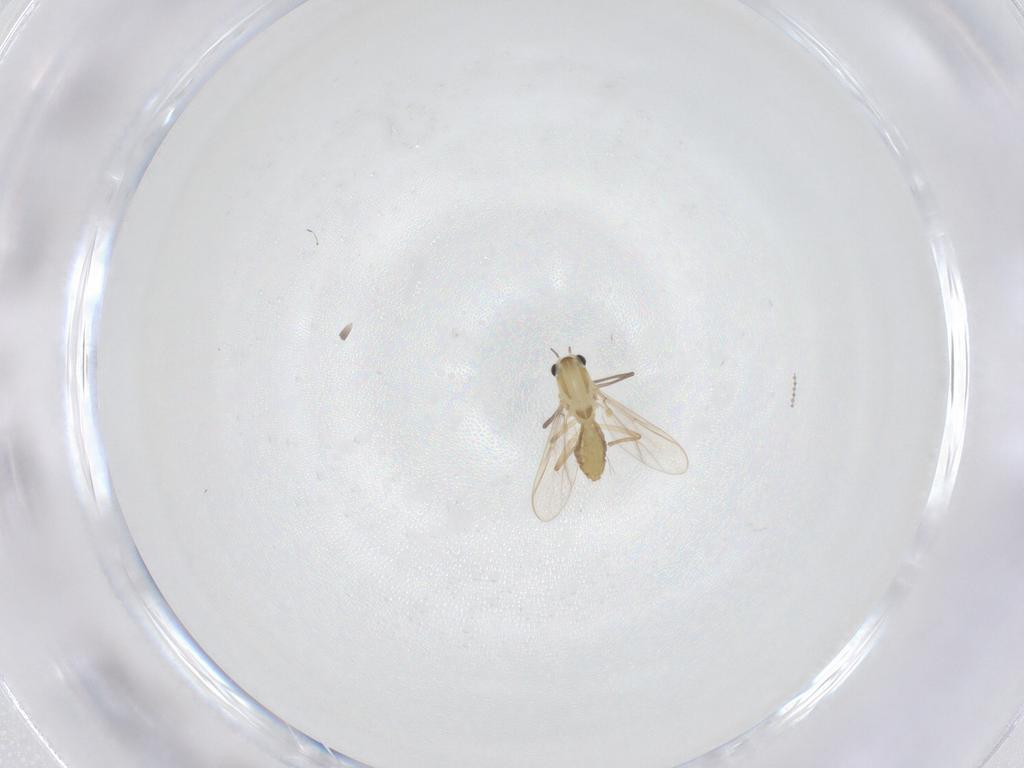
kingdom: Animalia
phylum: Arthropoda
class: Insecta
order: Diptera
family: Chironomidae
